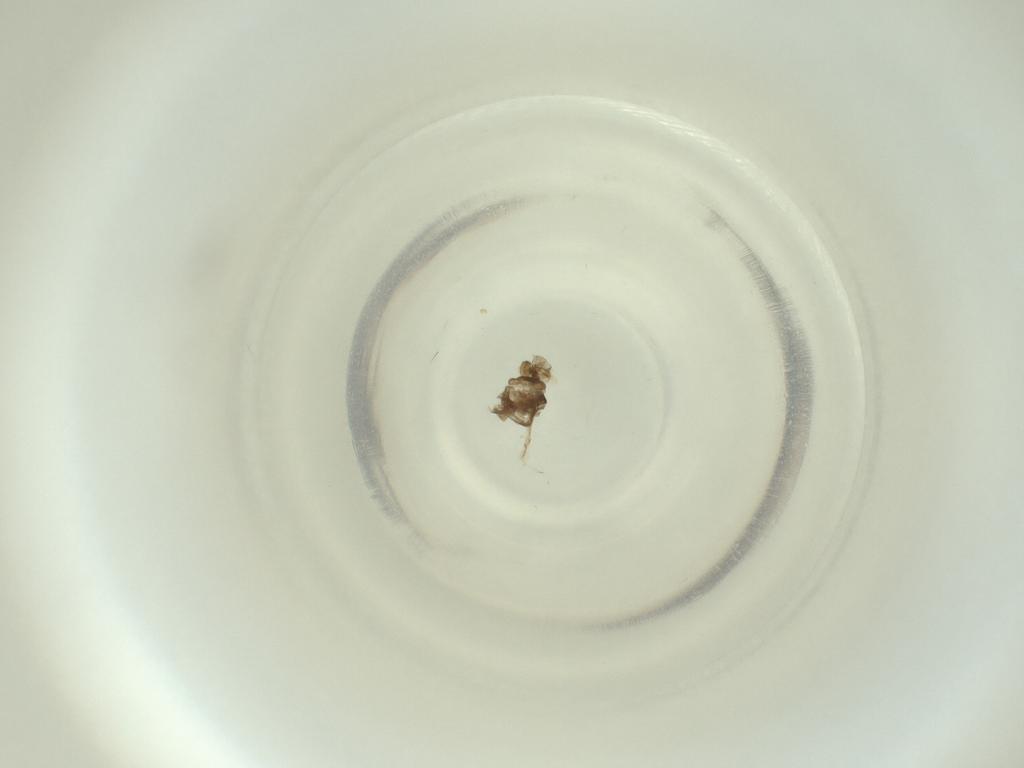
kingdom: Animalia
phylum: Arthropoda
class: Insecta
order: Diptera
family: Cecidomyiidae
